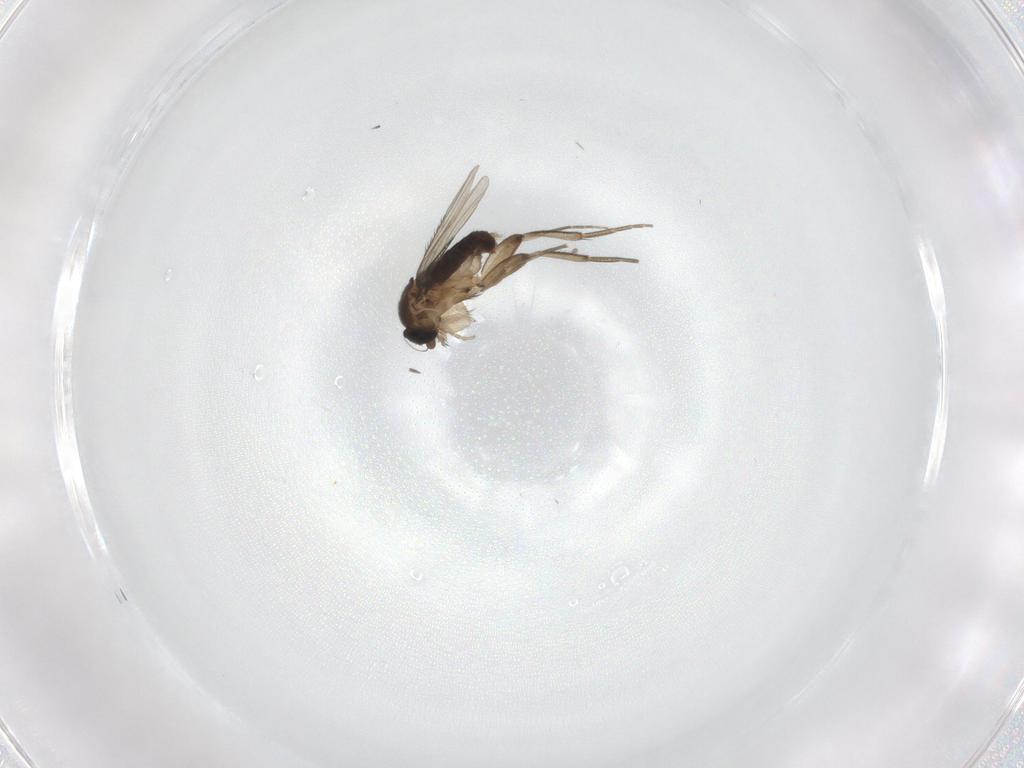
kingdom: Animalia
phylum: Arthropoda
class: Insecta
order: Diptera
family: Phoridae
